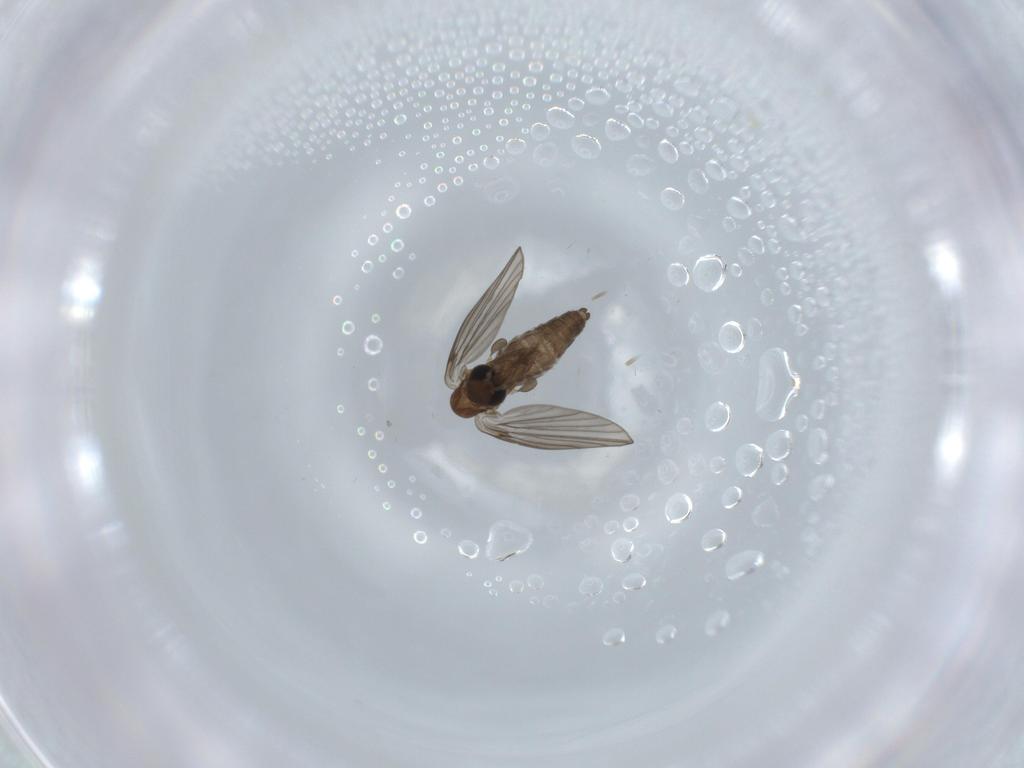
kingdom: Animalia
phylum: Arthropoda
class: Insecta
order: Diptera
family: Psychodidae
